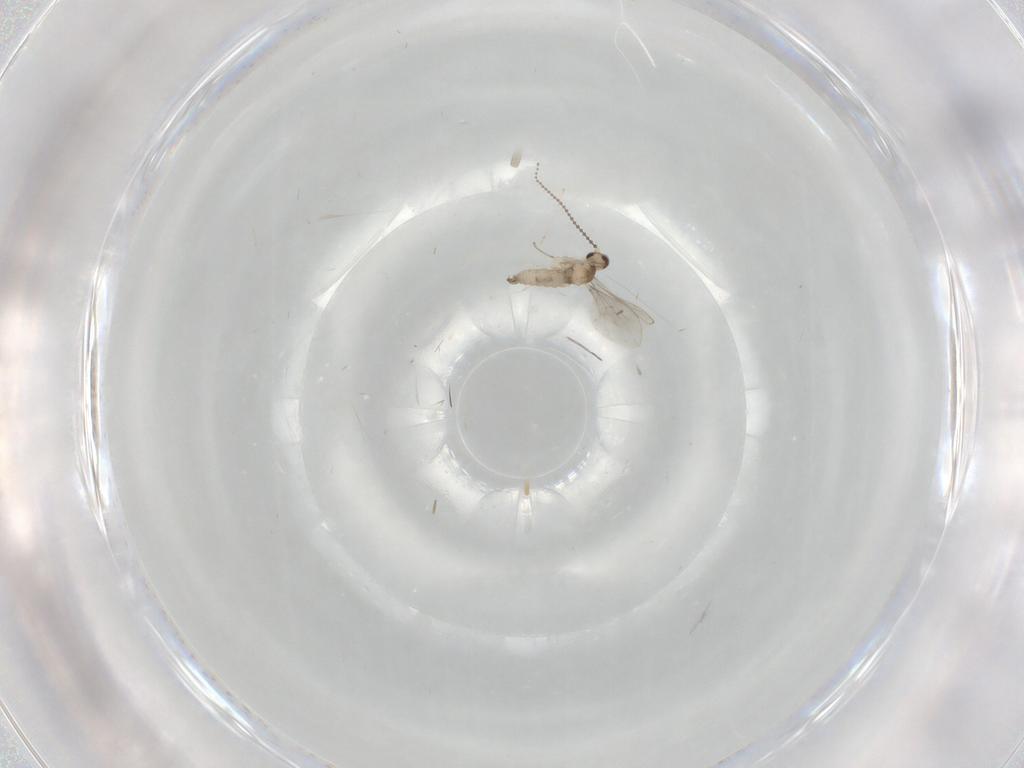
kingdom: Animalia
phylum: Arthropoda
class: Insecta
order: Diptera
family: Cecidomyiidae
